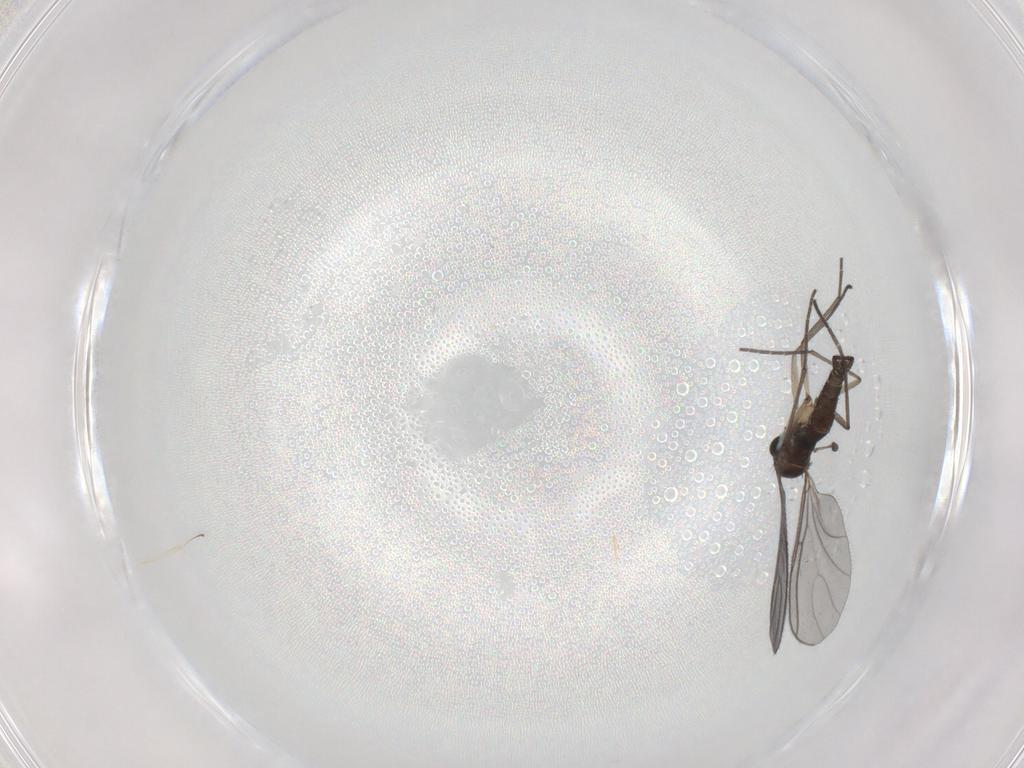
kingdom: Animalia
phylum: Arthropoda
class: Insecta
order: Diptera
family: Sciaridae
